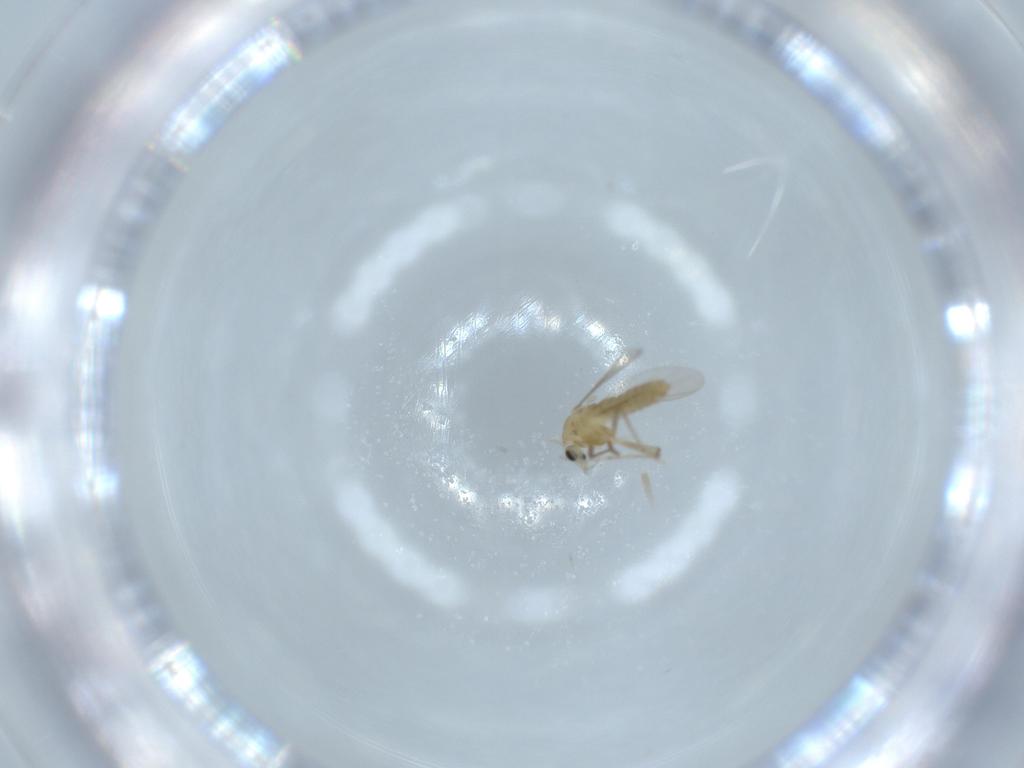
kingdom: Animalia
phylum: Arthropoda
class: Insecta
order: Diptera
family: Chironomidae
